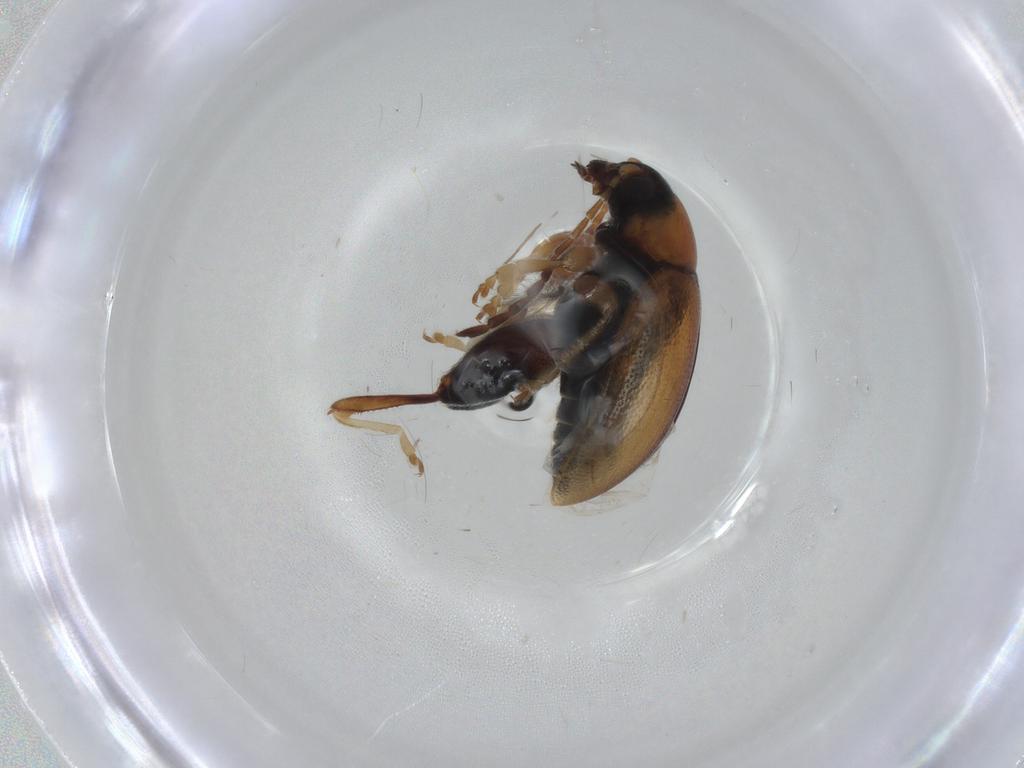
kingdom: Animalia
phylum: Arthropoda
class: Insecta
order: Coleoptera
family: Chrysomelidae
